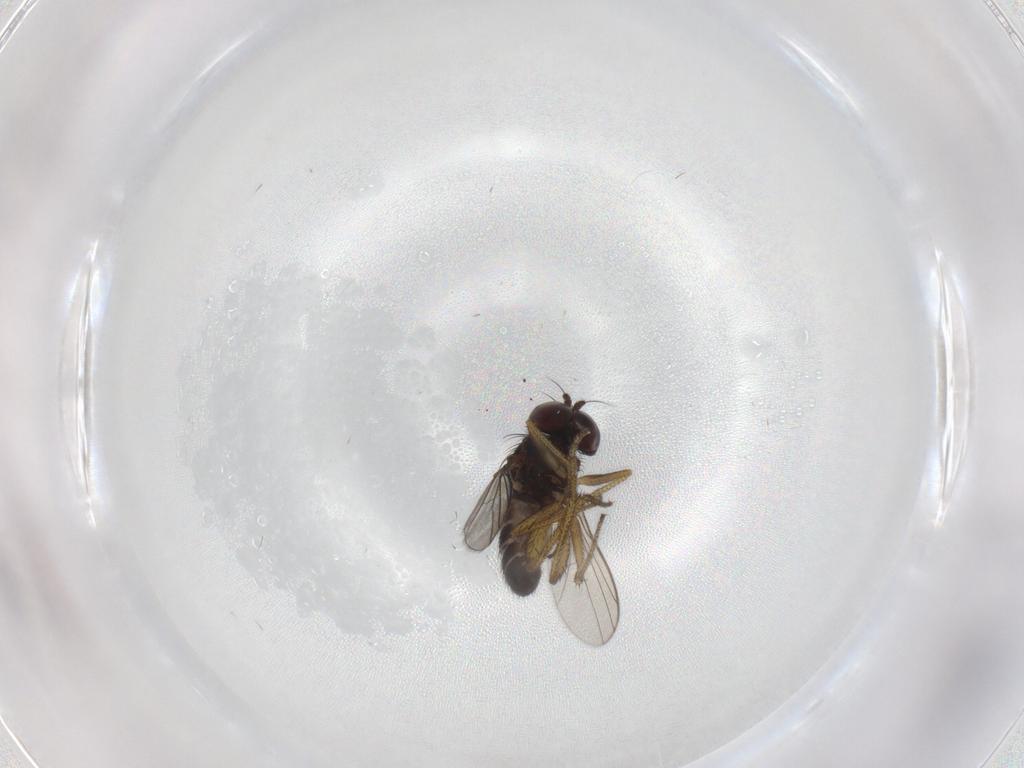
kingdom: Animalia
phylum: Arthropoda
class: Insecta
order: Diptera
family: Dolichopodidae
